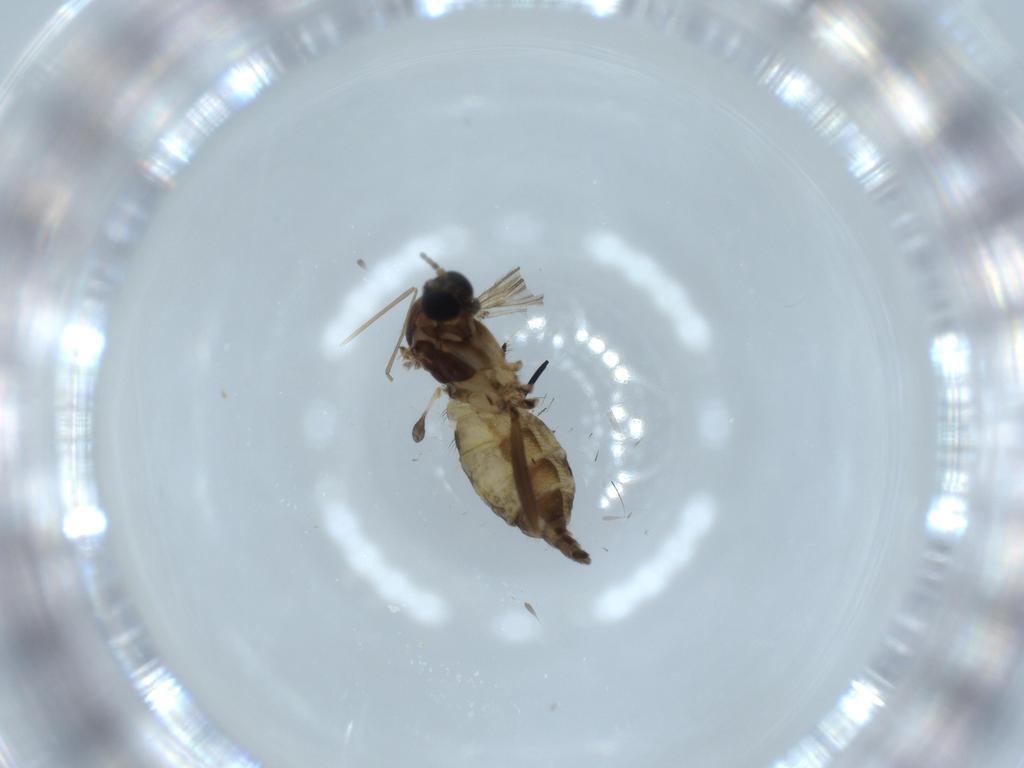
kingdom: Animalia
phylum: Arthropoda
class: Insecta
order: Diptera
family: Sciaridae
